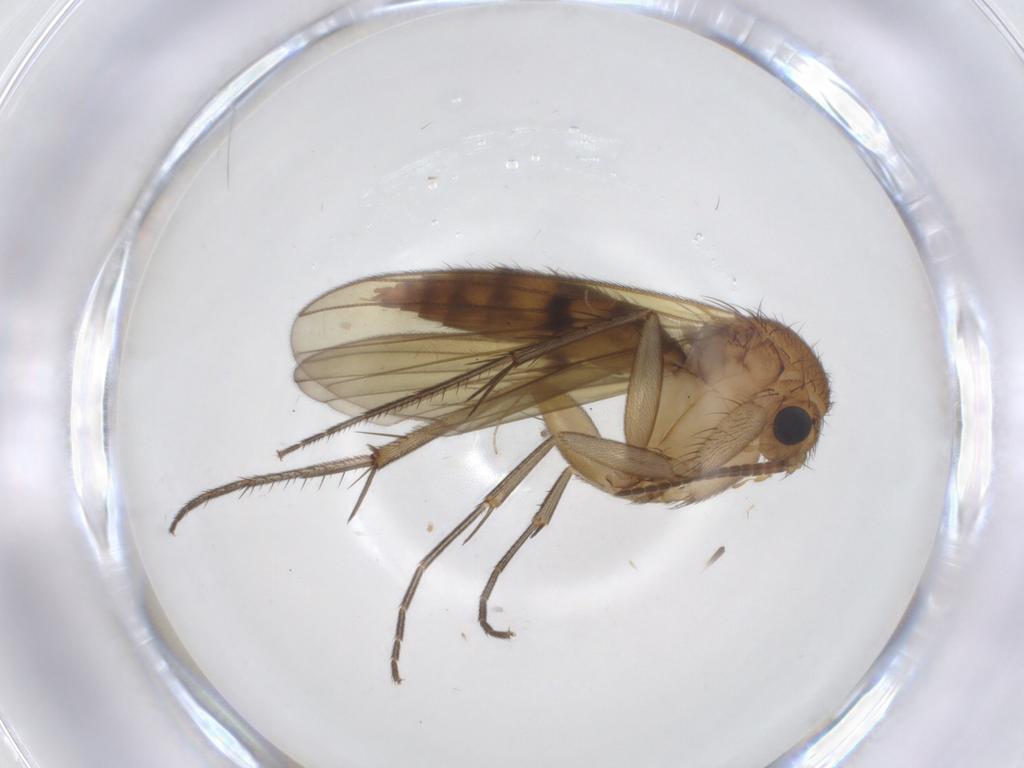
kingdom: Animalia
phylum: Arthropoda
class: Insecta
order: Diptera
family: Chironomidae
